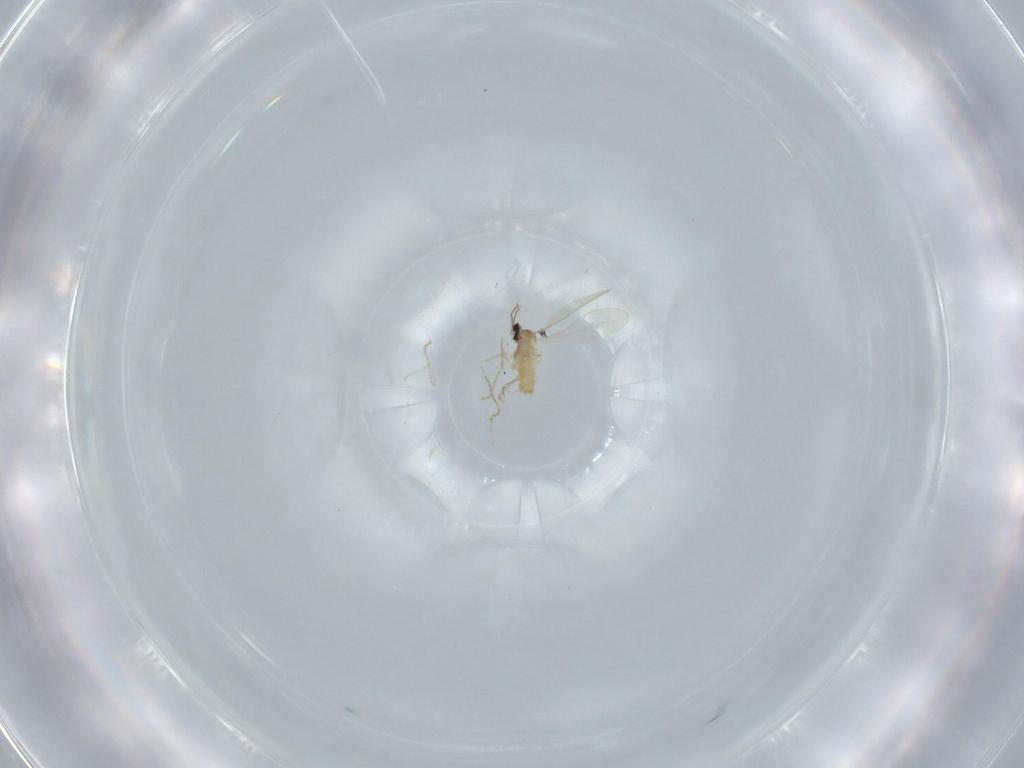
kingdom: Animalia
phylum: Arthropoda
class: Insecta
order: Diptera
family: Cecidomyiidae
